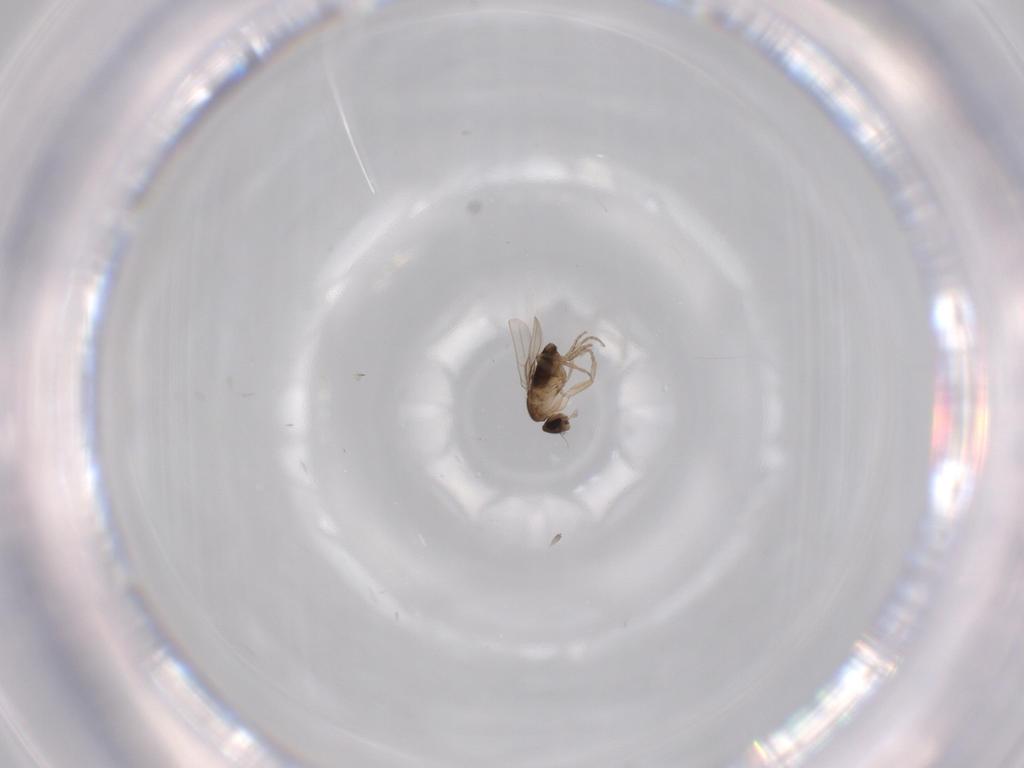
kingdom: Animalia
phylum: Arthropoda
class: Insecta
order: Diptera
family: Phoridae
